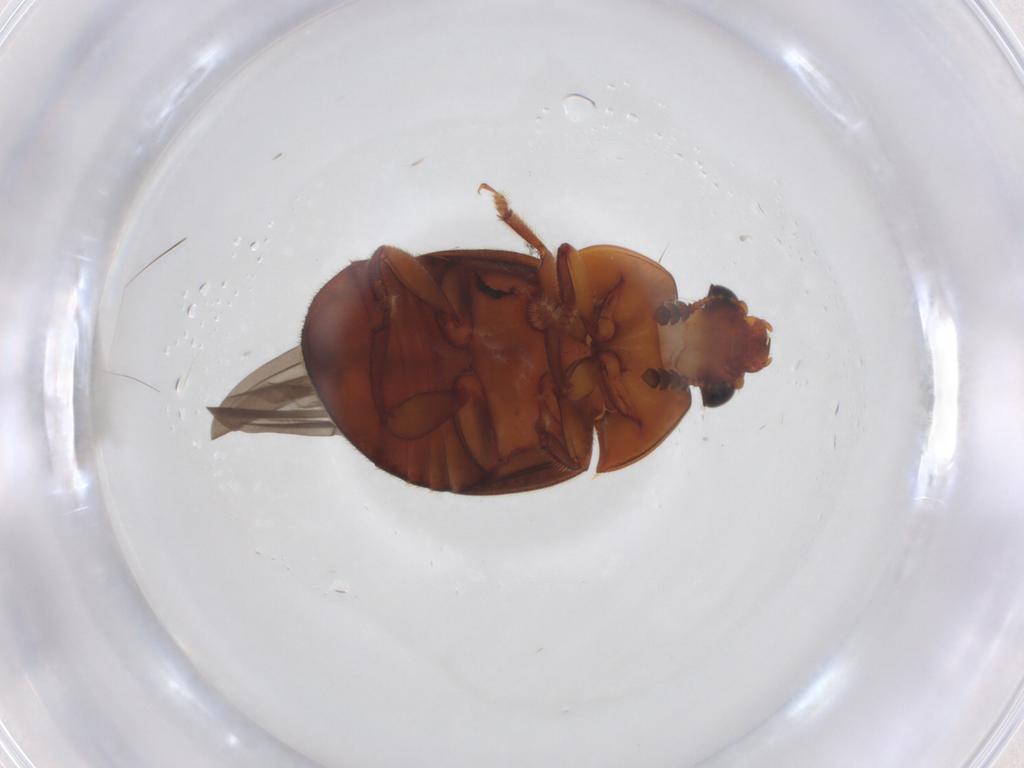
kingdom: Animalia
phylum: Arthropoda
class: Insecta
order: Coleoptera
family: Nitidulidae
